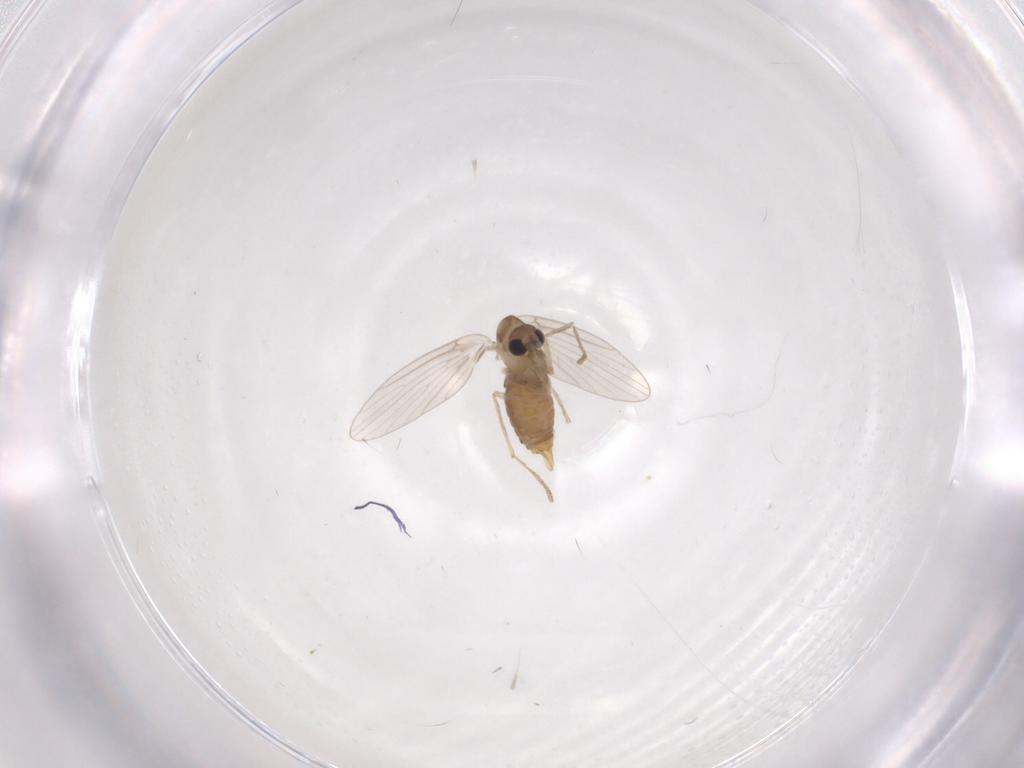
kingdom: Animalia
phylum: Arthropoda
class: Insecta
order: Diptera
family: Psychodidae
